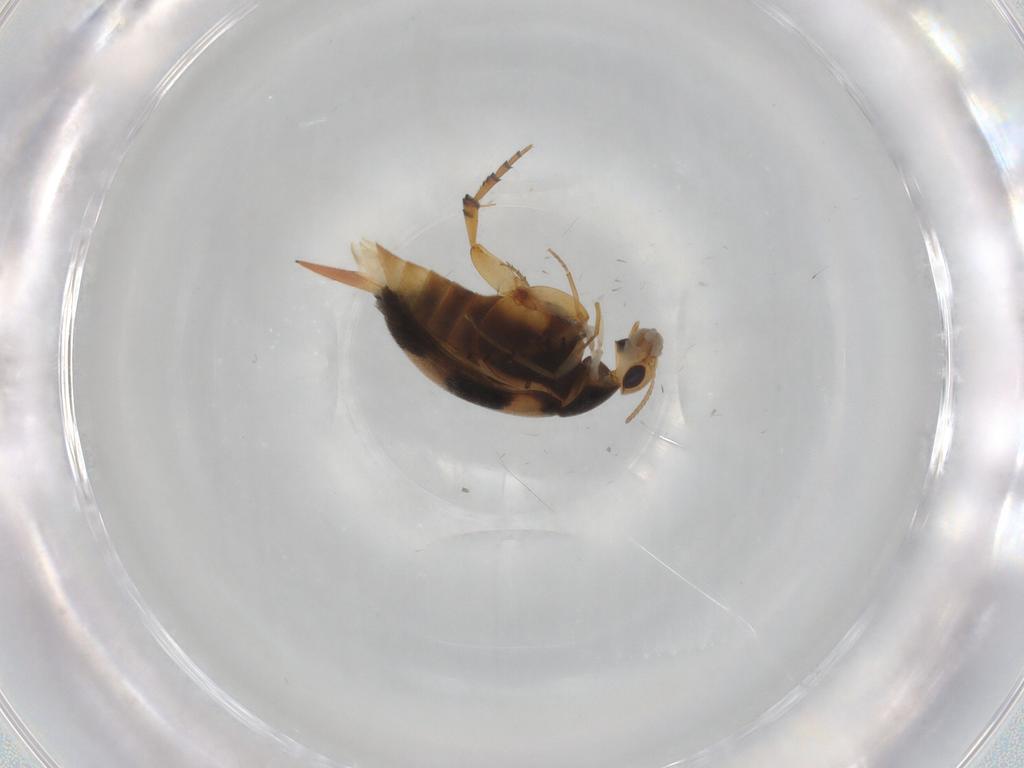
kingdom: Animalia
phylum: Arthropoda
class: Insecta
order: Coleoptera
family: Mordellidae
